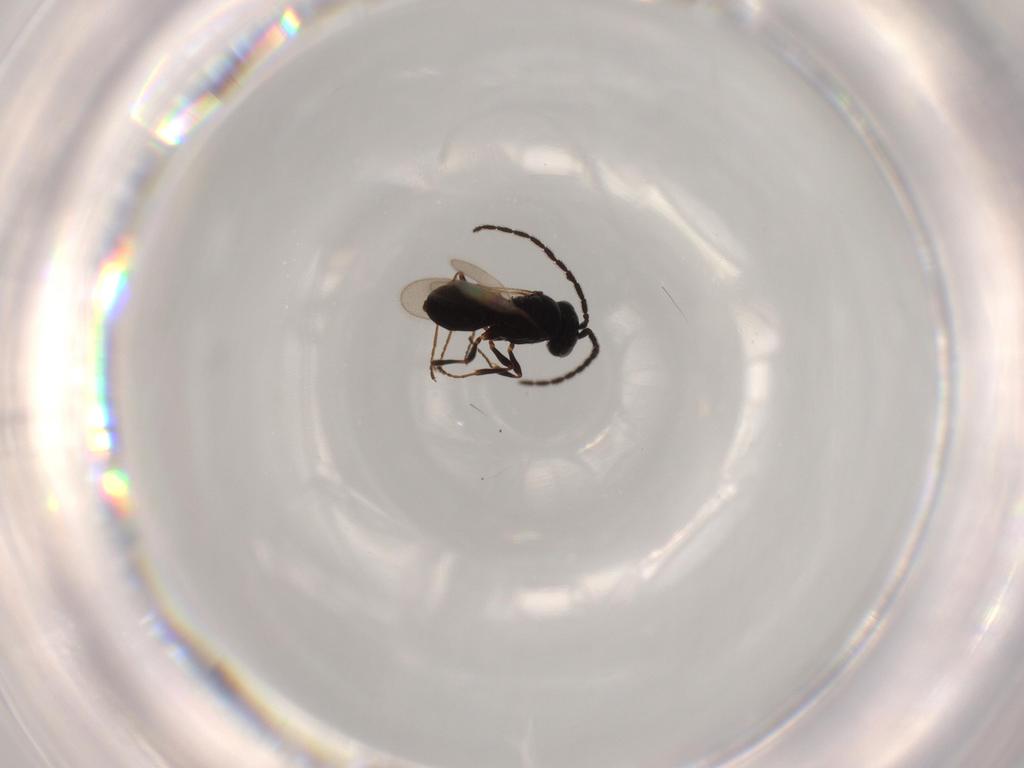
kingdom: Animalia
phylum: Arthropoda
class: Insecta
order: Hymenoptera
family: Scelionidae
